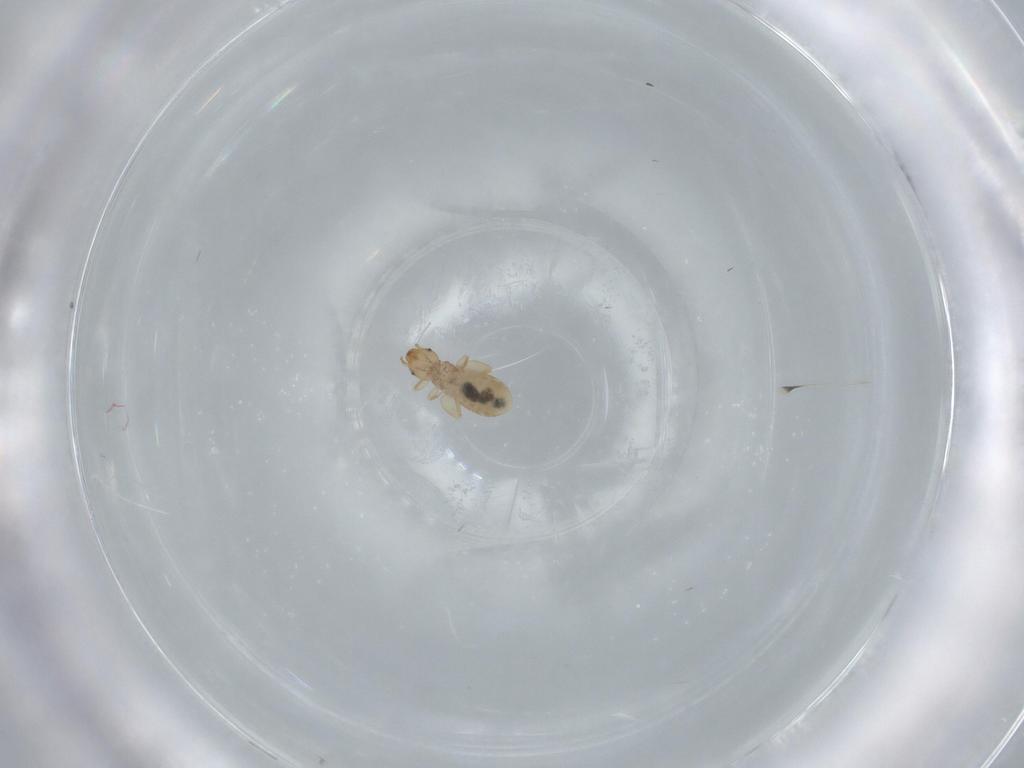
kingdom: Animalia
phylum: Arthropoda
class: Insecta
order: Psocodea
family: Liposcelididae
